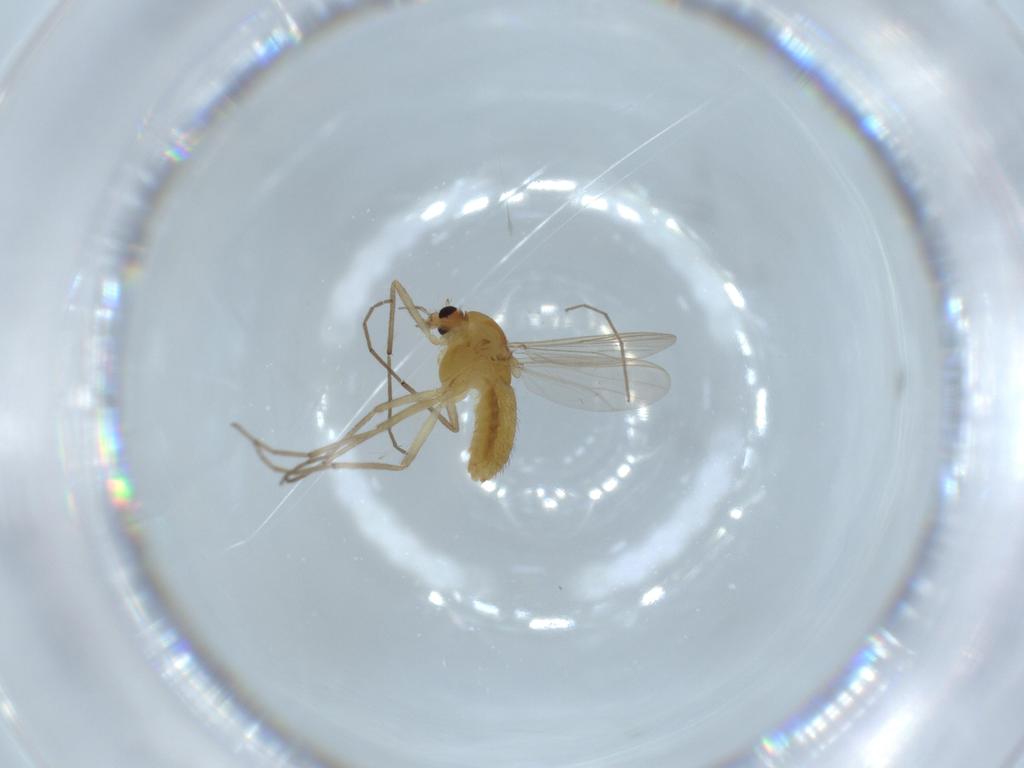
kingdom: Animalia
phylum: Arthropoda
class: Insecta
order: Diptera
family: Chironomidae
